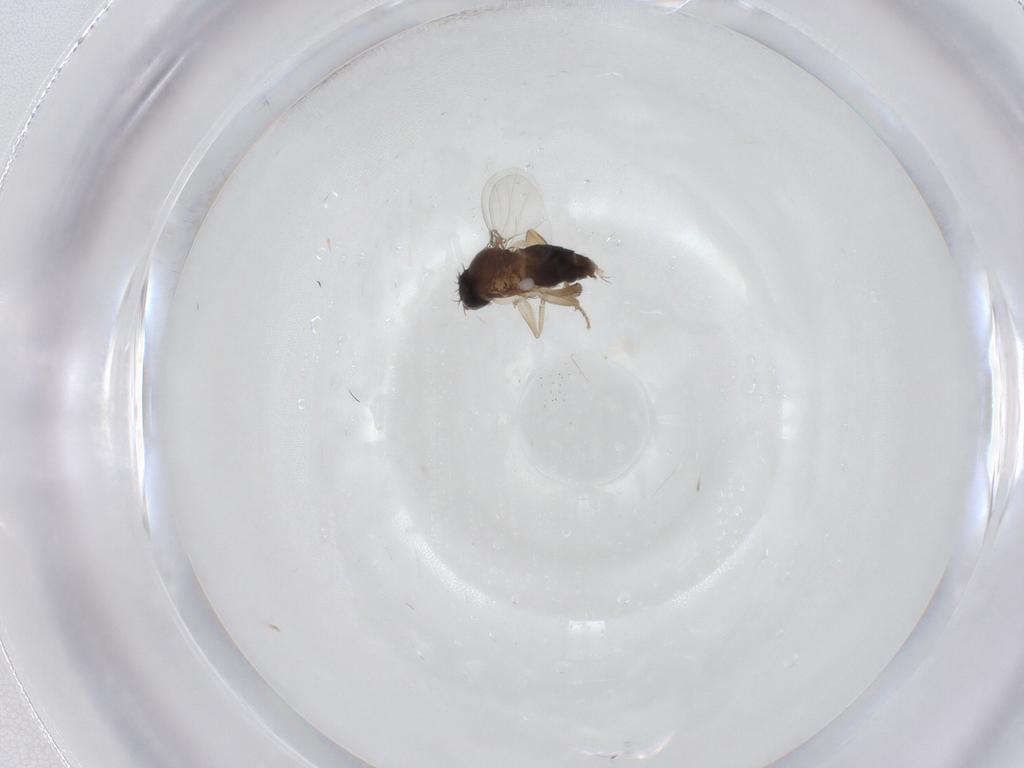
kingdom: Animalia
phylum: Arthropoda
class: Insecta
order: Diptera
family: Phoridae
